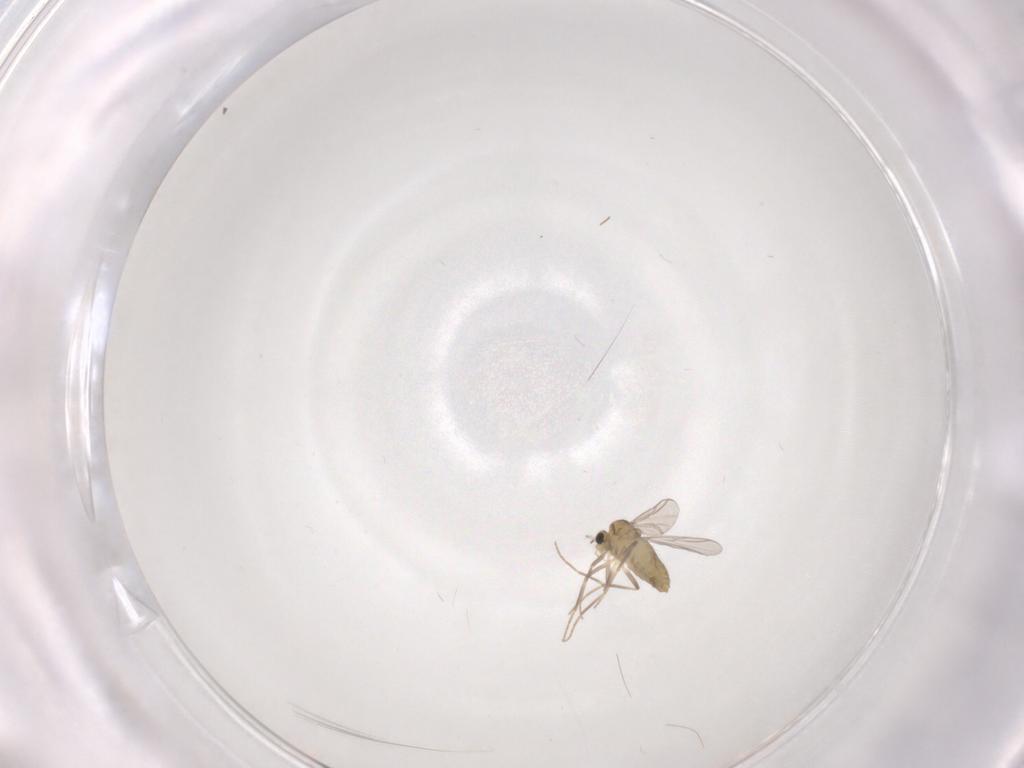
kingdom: Animalia
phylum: Arthropoda
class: Insecta
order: Diptera
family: Chironomidae
